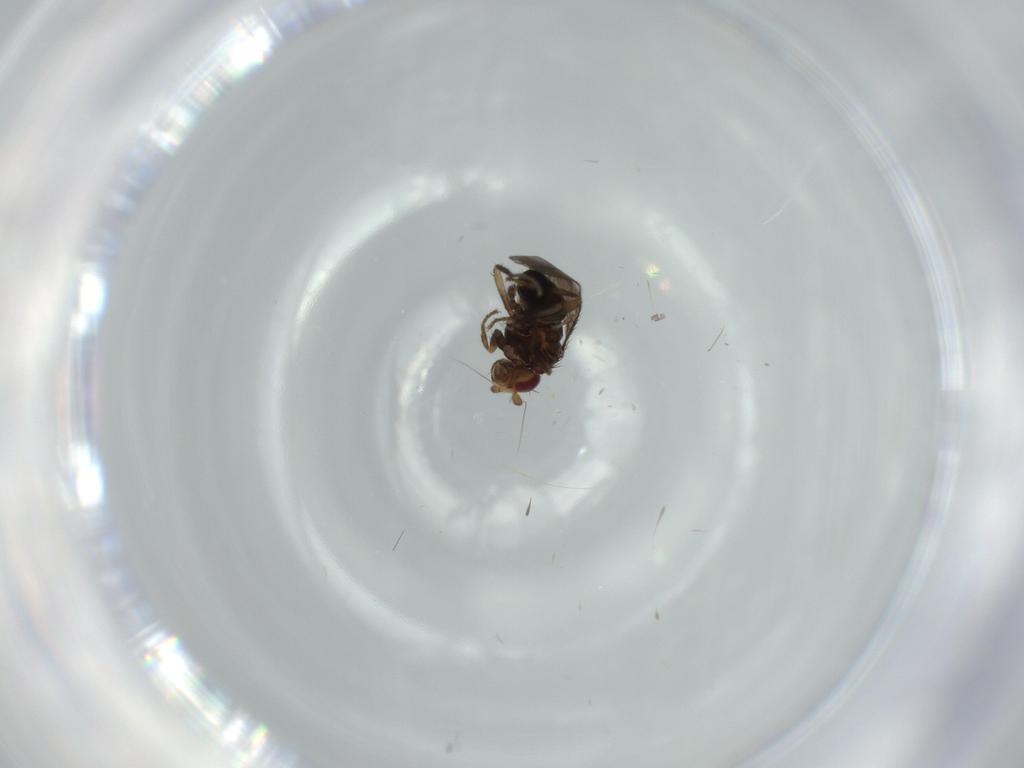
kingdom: Animalia
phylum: Arthropoda
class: Insecta
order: Diptera
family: Hybotidae
